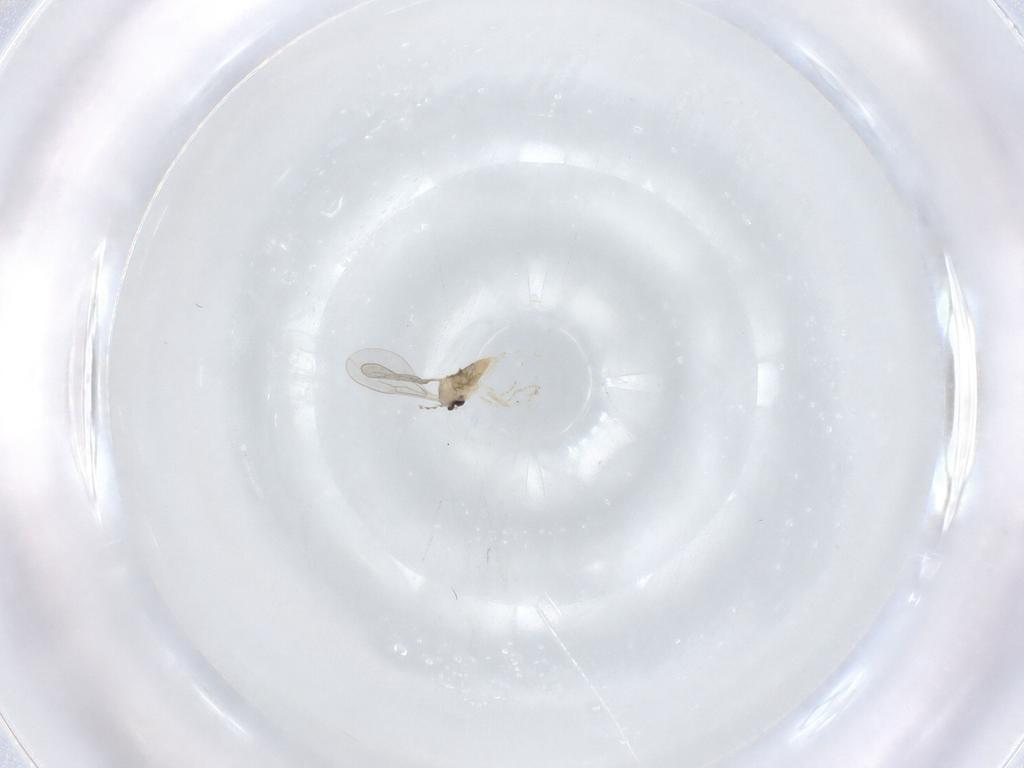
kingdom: Animalia
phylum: Arthropoda
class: Insecta
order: Diptera
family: Cecidomyiidae
